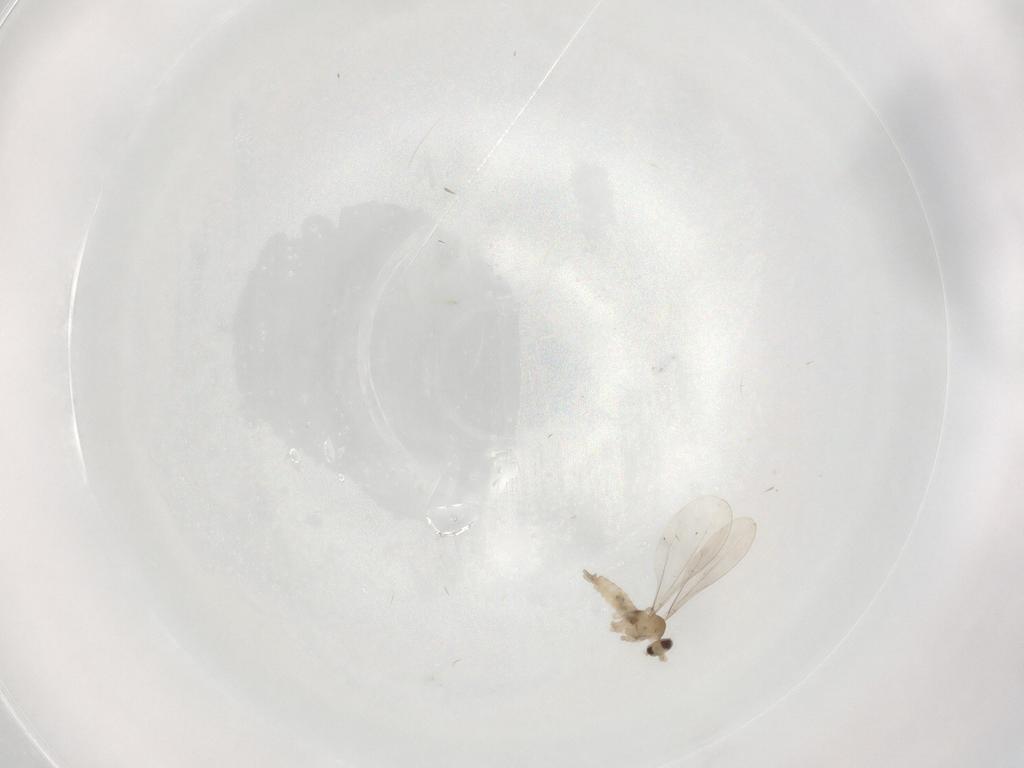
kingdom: Animalia
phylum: Arthropoda
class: Insecta
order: Diptera
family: Cecidomyiidae
